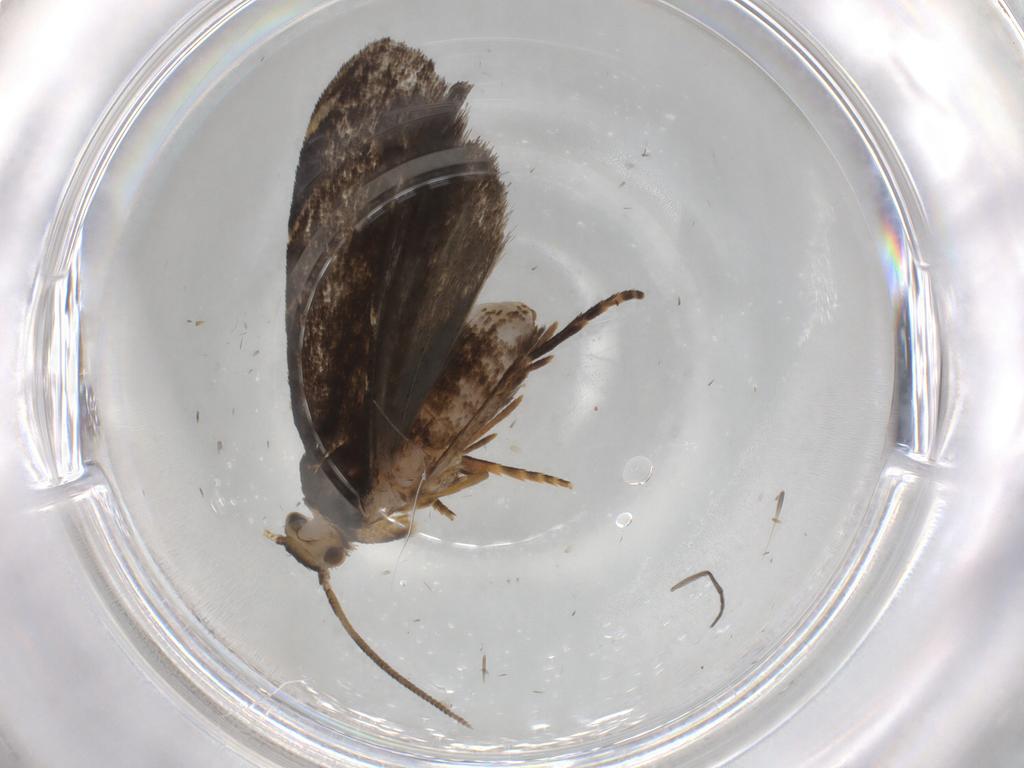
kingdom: Animalia
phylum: Arthropoda
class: Insecta
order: Lepidoptera
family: Dryadaulidae
